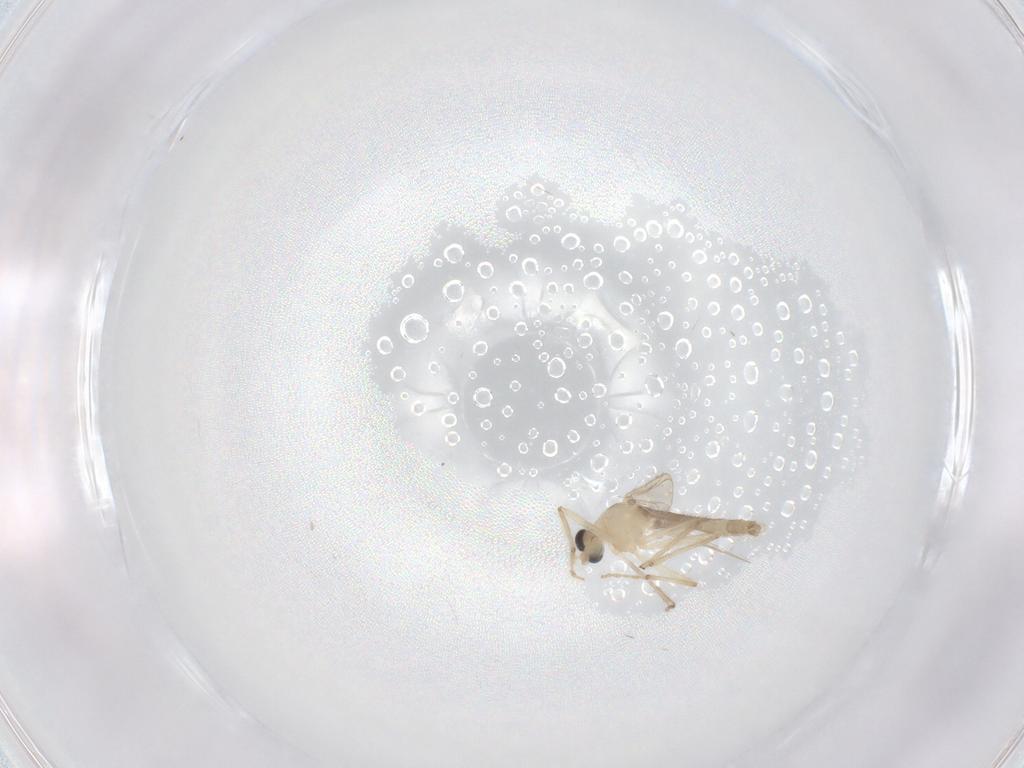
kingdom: Animalia
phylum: Arthropoda
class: Insecta
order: Diptera
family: Chironomidae
